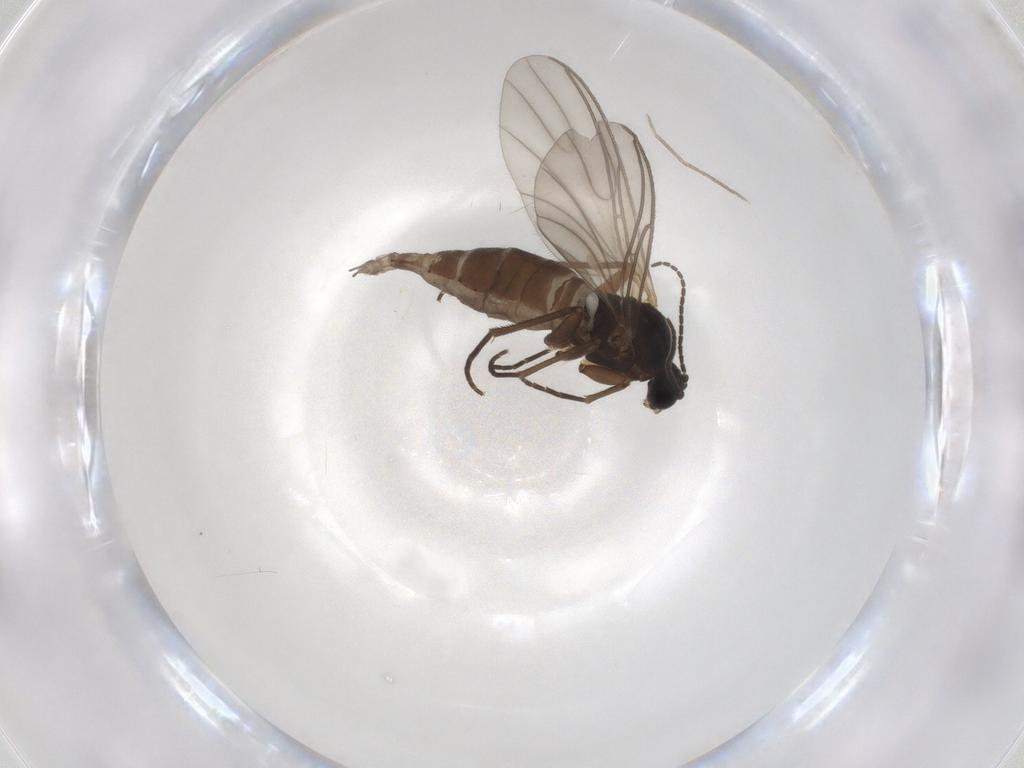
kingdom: Animalia
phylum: Arthropoda
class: Insecta
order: Diptera
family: Sciaridae
